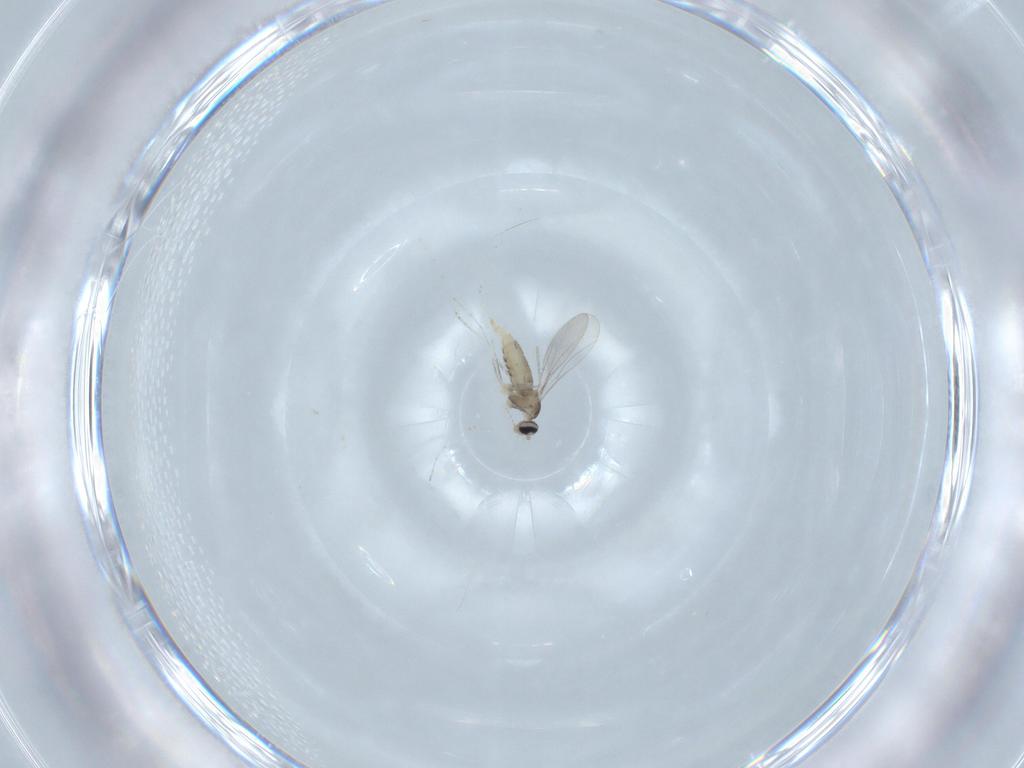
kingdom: Animalia
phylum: Arthropoda
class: Insecta
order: Diptera
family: Cecidomyiidae
